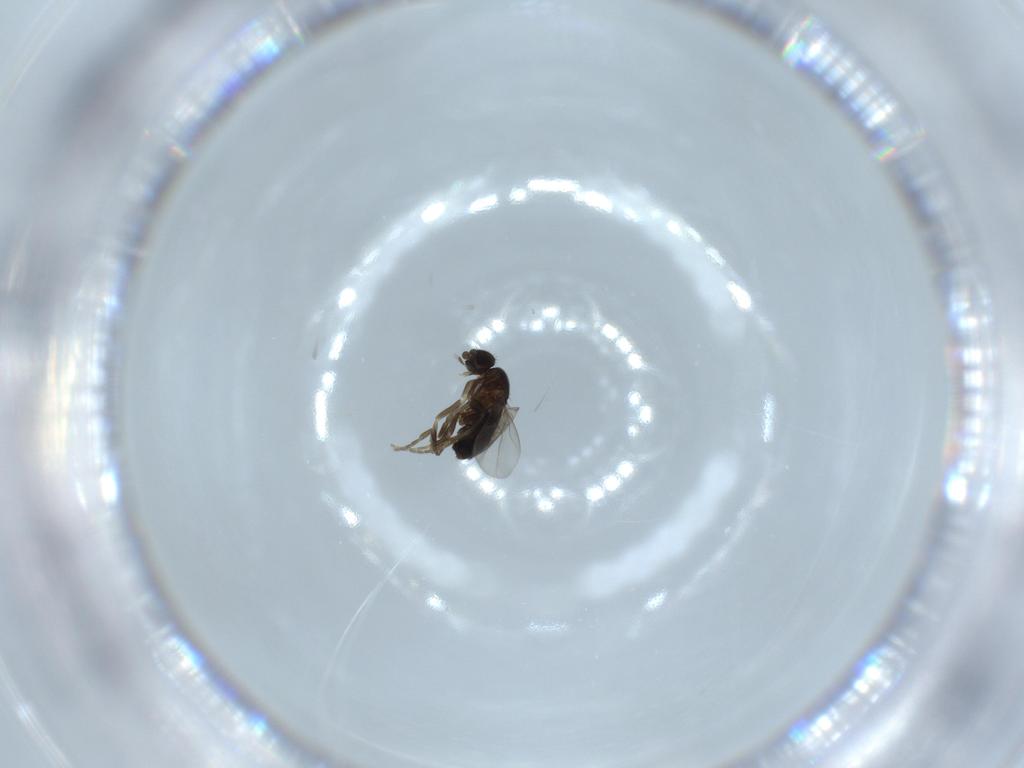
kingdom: Animalia
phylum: Arthropoda
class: Insecta
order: Diptera
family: Phoridae
